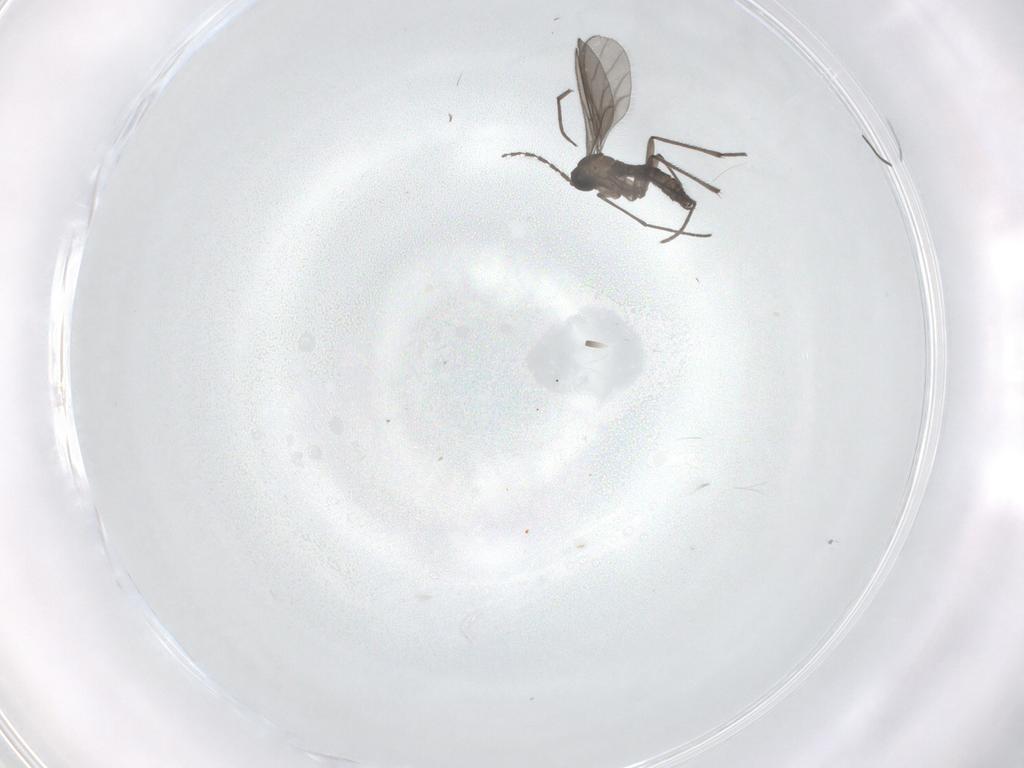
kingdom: Animalia
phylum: Arthropoda
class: Insecta
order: Diptera
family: Sciaridae
